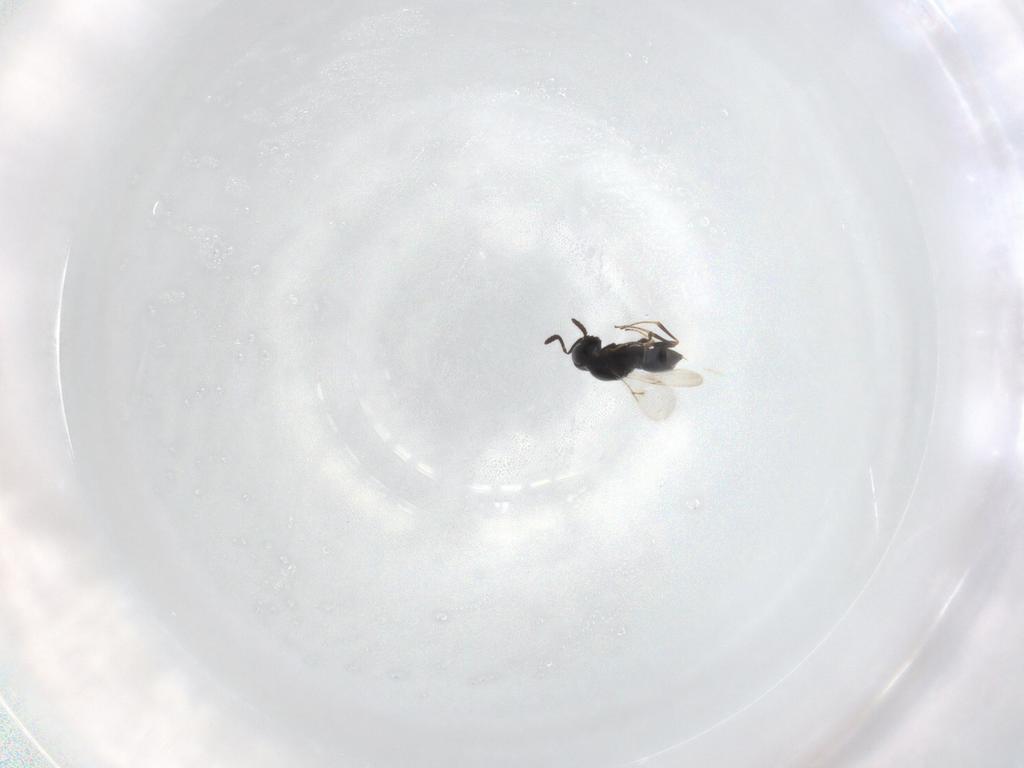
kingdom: Animalia
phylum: Arthropoda
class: Insecta
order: Hymenoptera
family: Scelionidae
